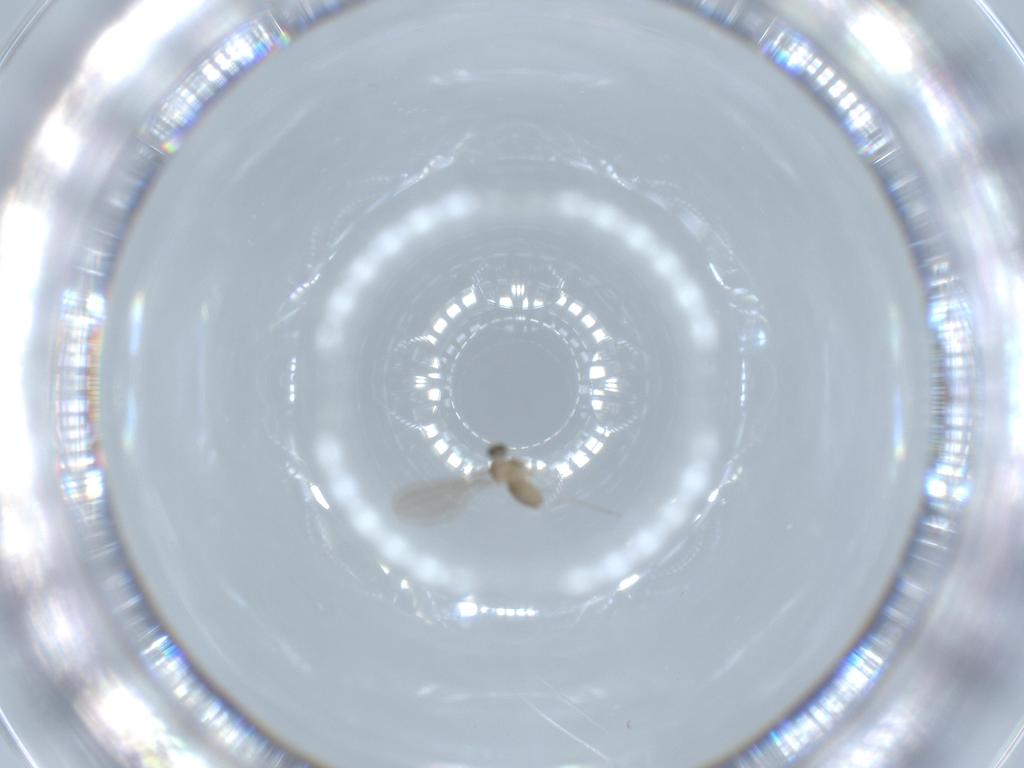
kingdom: Animalia
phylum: Arthropoda
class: Insecta
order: Diptera
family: Cecidomyiidae
